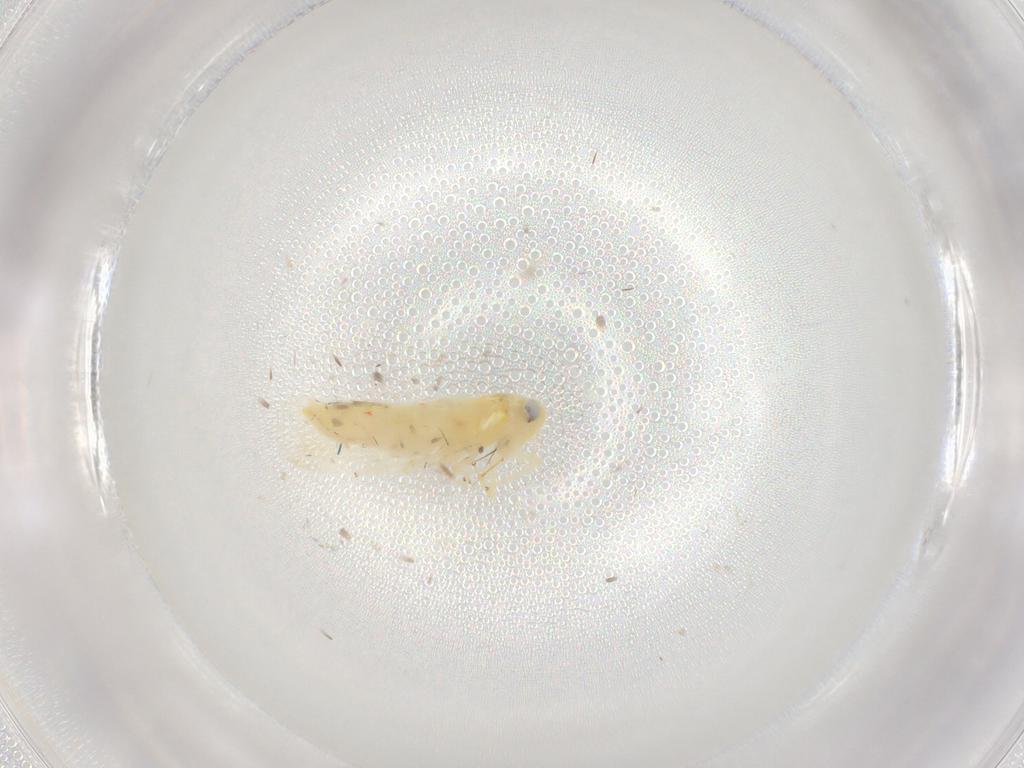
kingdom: Animalia
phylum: Arthropoda
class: Insecta
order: Hemiptera
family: Cicadellidae
